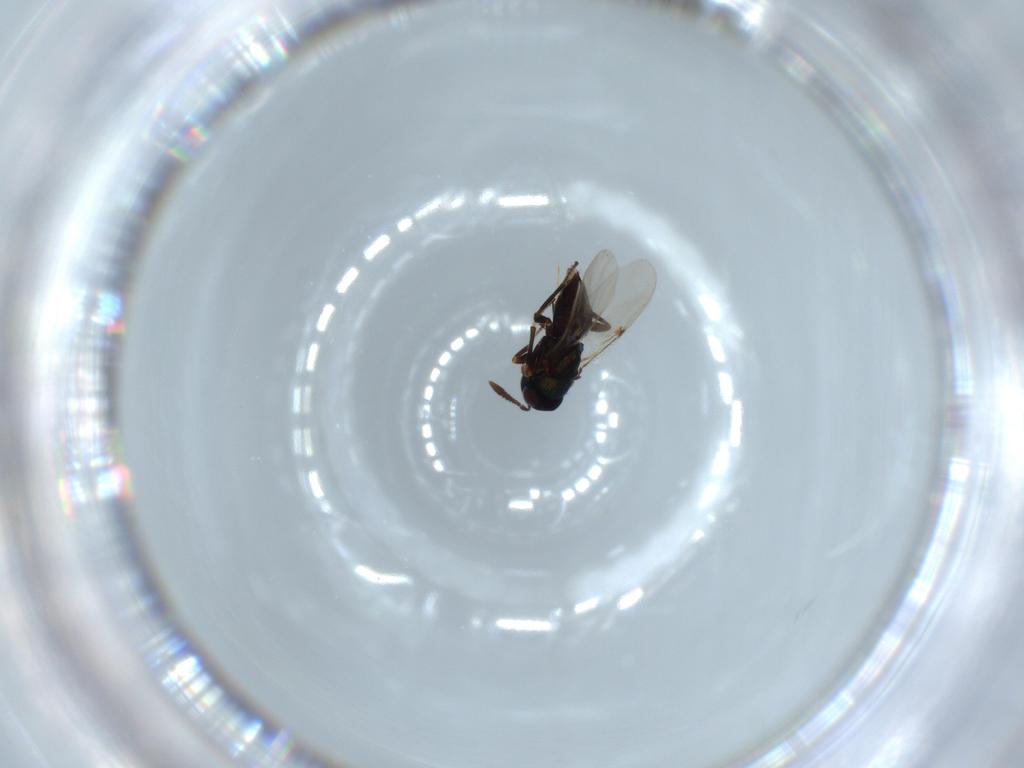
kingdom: Animalia
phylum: Arthropoda
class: Insecta
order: Hymenoptera
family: Encyrtidae
